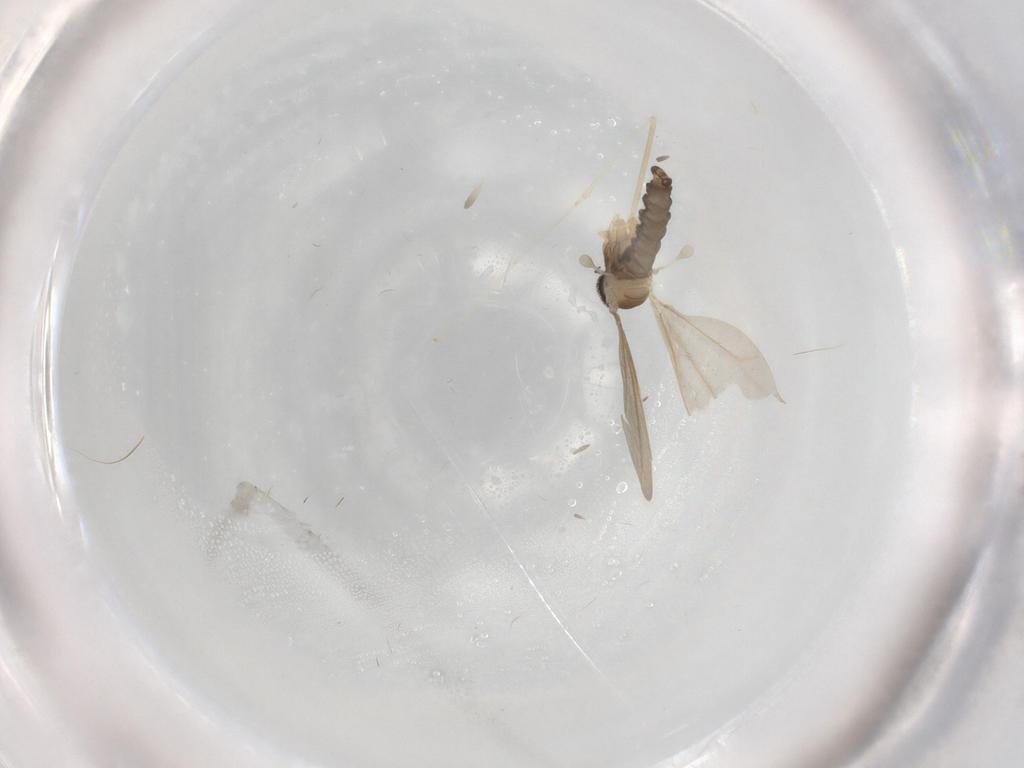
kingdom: Animalia
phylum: Arthropoda
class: Insecta
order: Diptera
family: Cecidomyiidae
